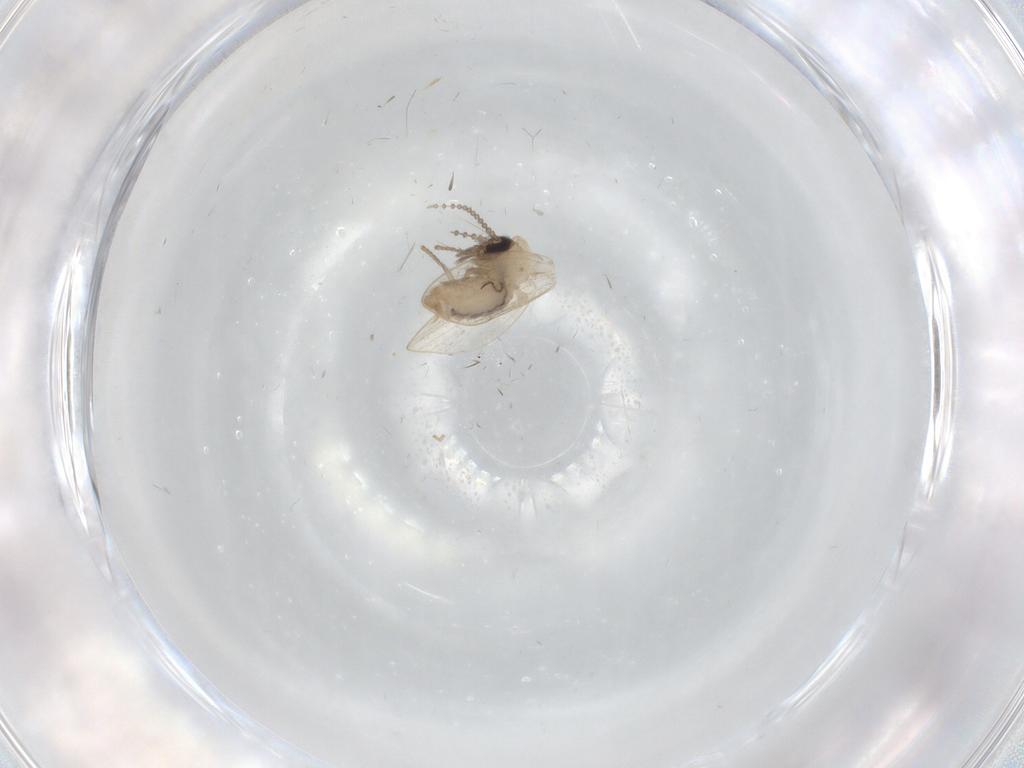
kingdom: Animalia
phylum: Arthropoda
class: Insecta
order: Diptera
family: Psychodidae
